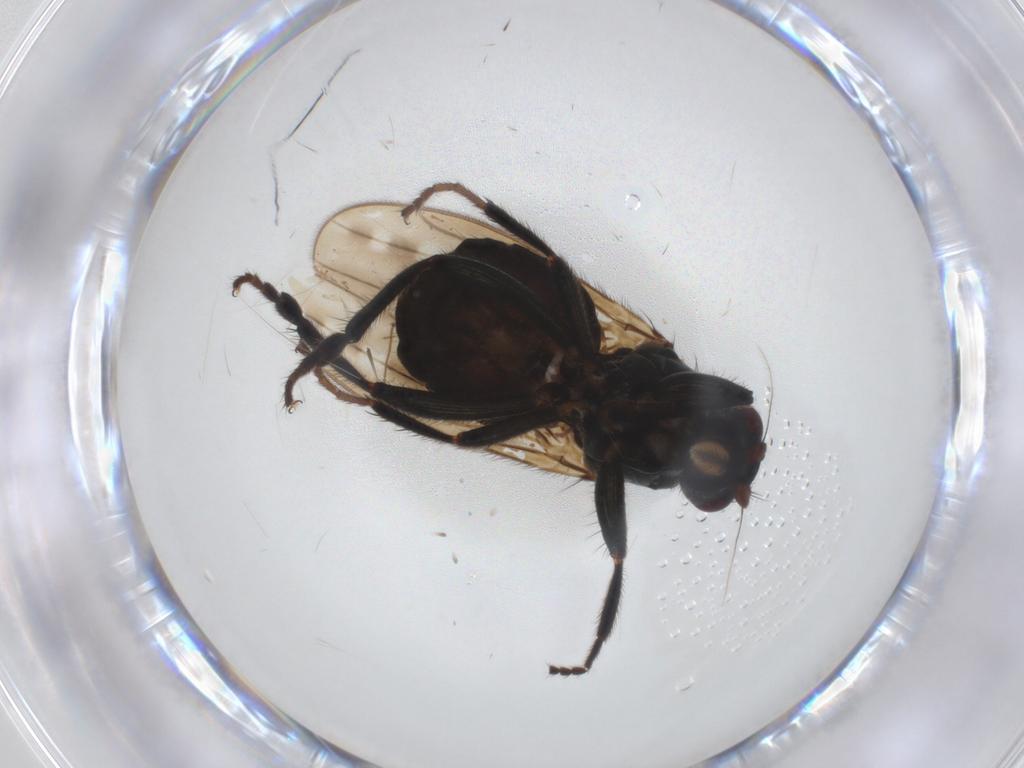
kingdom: Animalia
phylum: Arthropoda
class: Insecta
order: Diptera
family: Sphaeroceridae
